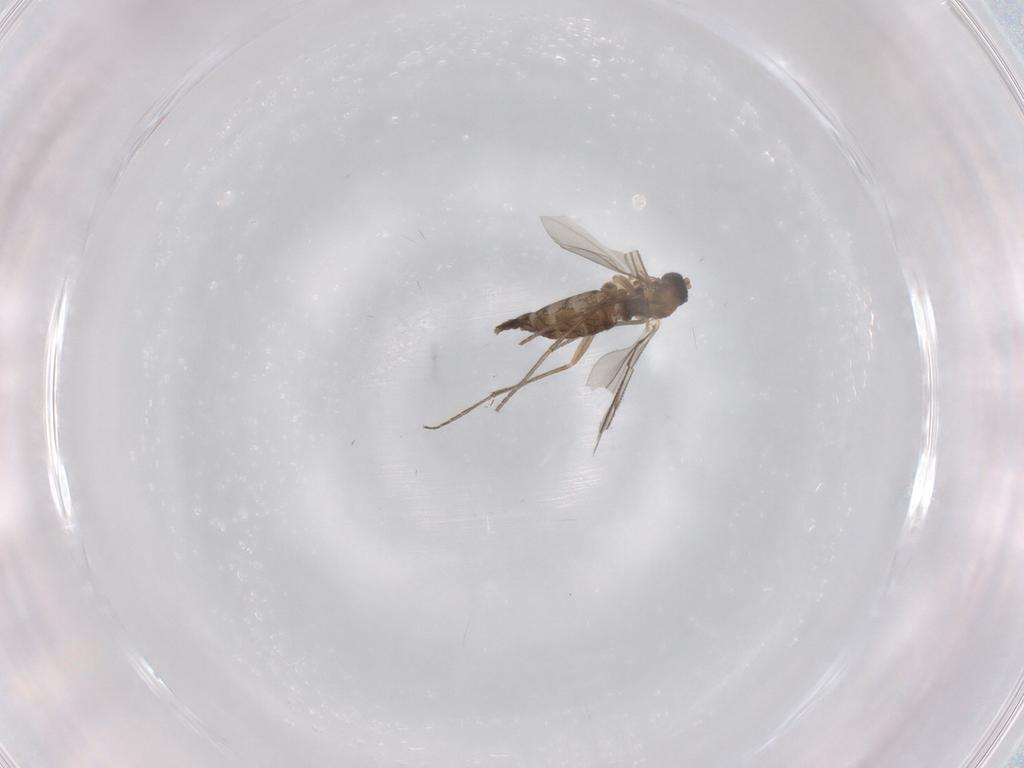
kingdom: Animalia
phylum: Arthropoda
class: Insecta
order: Diptera
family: Sciaridae
